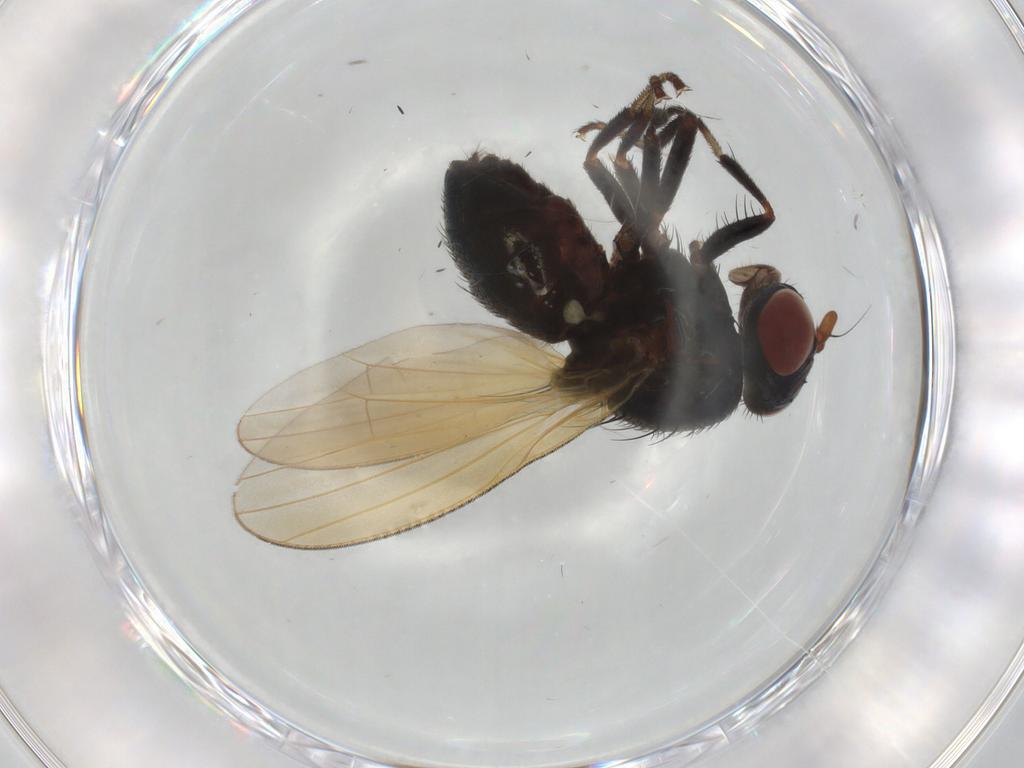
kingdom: Animalia
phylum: Arthropoda
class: Insecta
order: Diptera
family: Lauxaniidae
